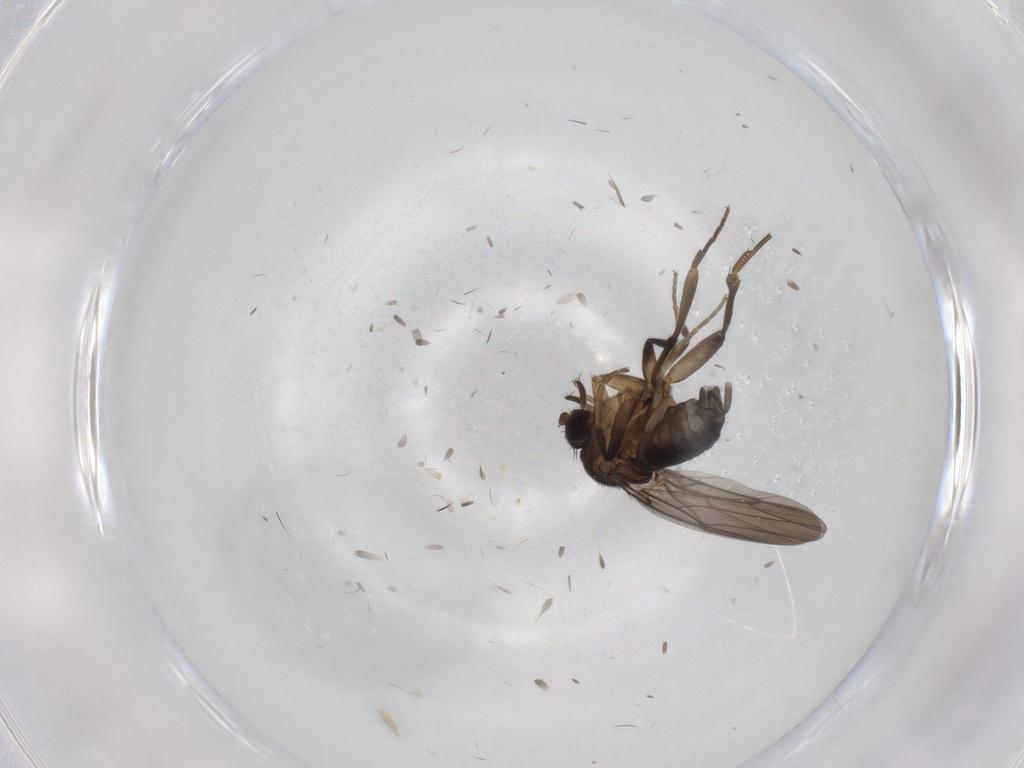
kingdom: Animalia
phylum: Arthropoda
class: Insecta
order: Diptera
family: Phoridae
